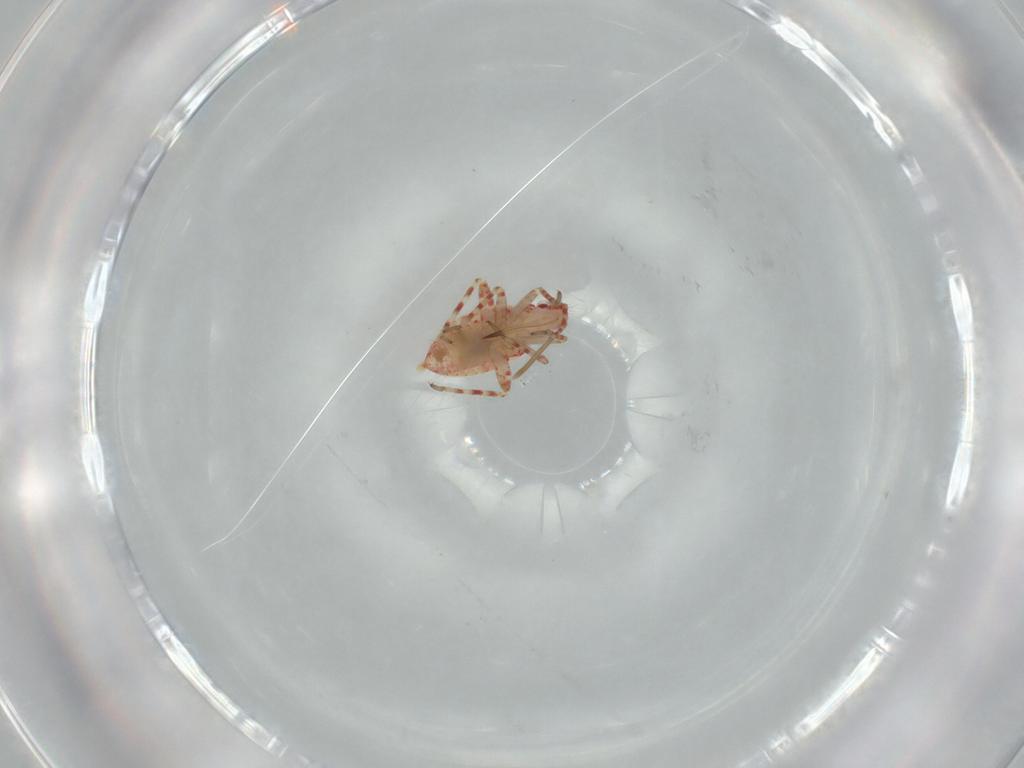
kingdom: Animalia
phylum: Arthropoda
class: Insecta
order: Hemiptera
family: Miridae
